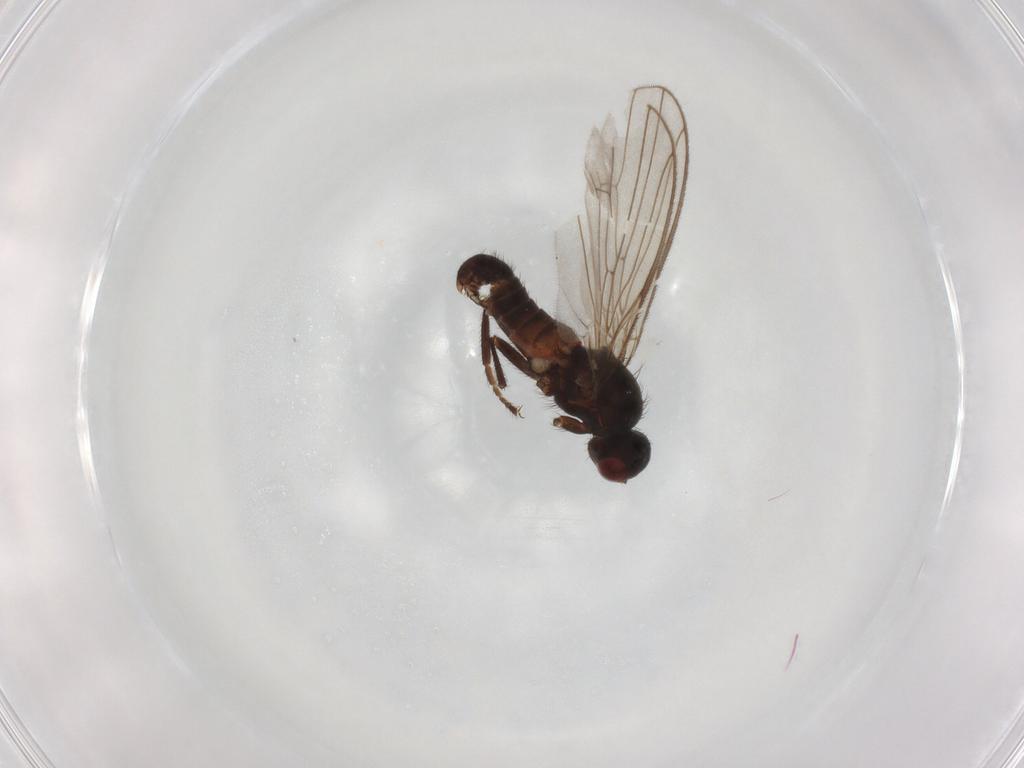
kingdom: Animalia
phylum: Arthropoda
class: Insecta
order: Diptera
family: Heleomyzidae
